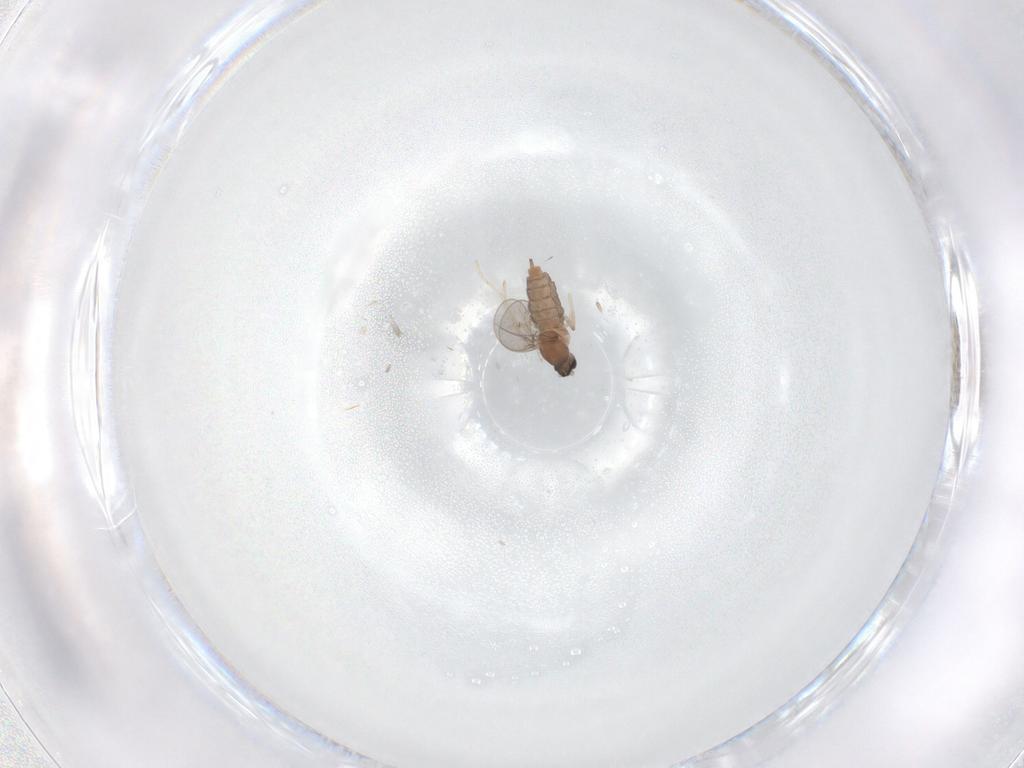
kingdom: Animalia
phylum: Arthropoda
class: Insecta
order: Diptera
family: Cecidomyiidae
